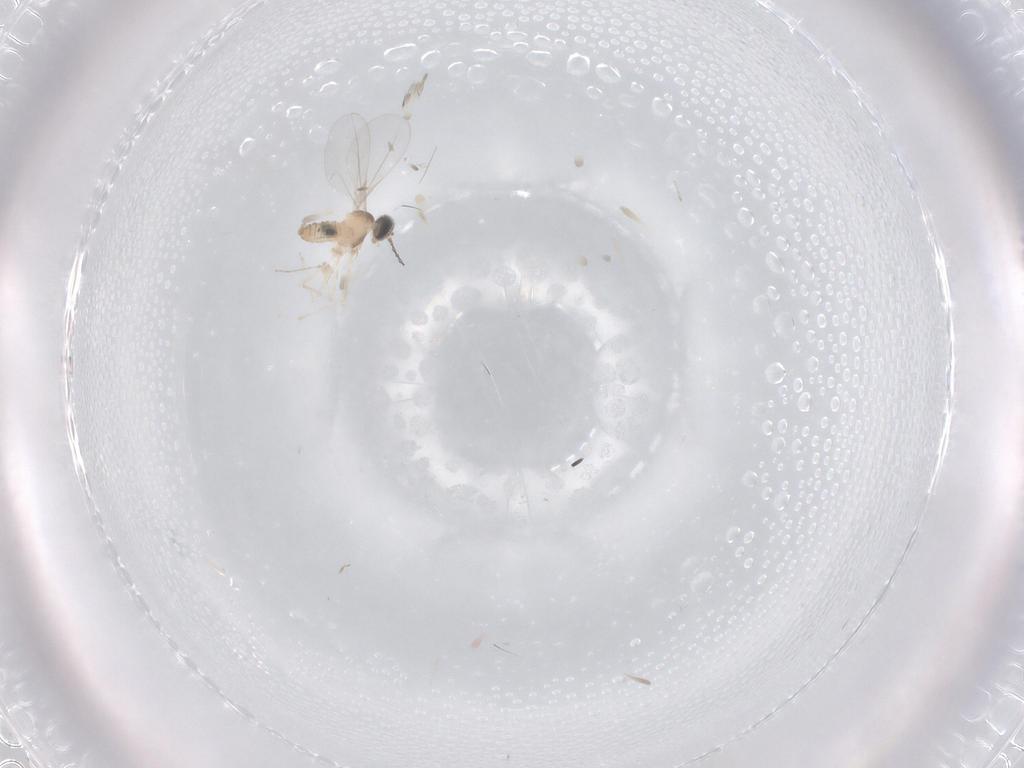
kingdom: Animalia
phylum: Arthropoda
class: Insecta
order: Diptera
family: Cecidomyiidae
